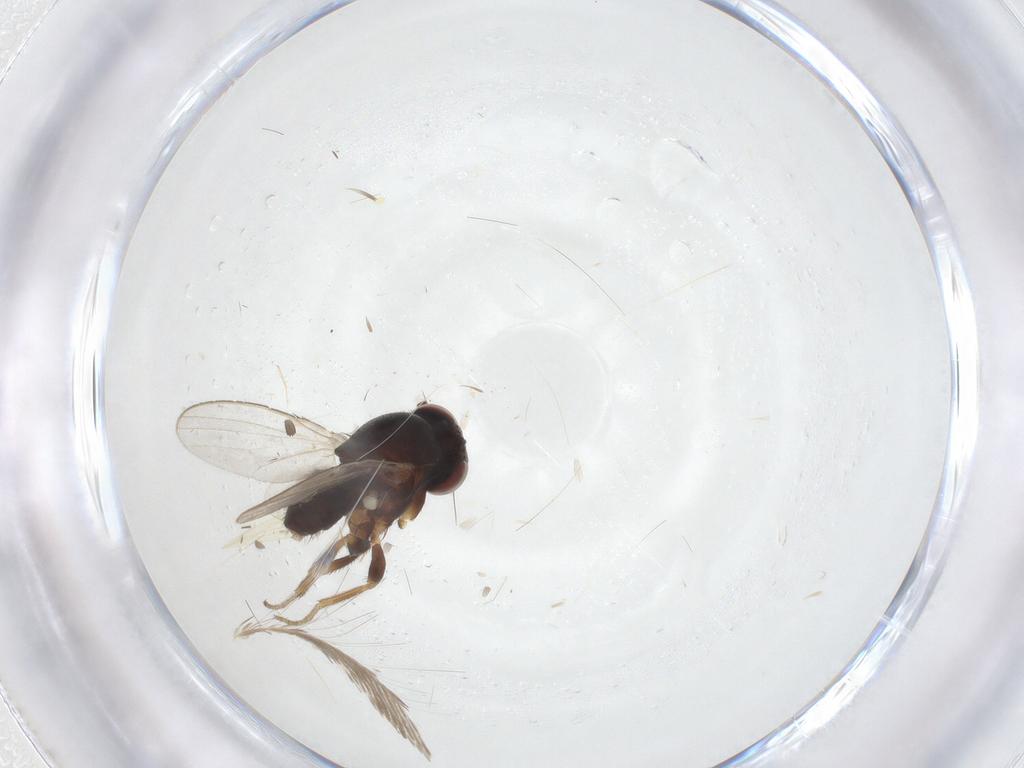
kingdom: Animalia
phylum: Arthropoda
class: Insecta
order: Diptera
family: Milichiidae
